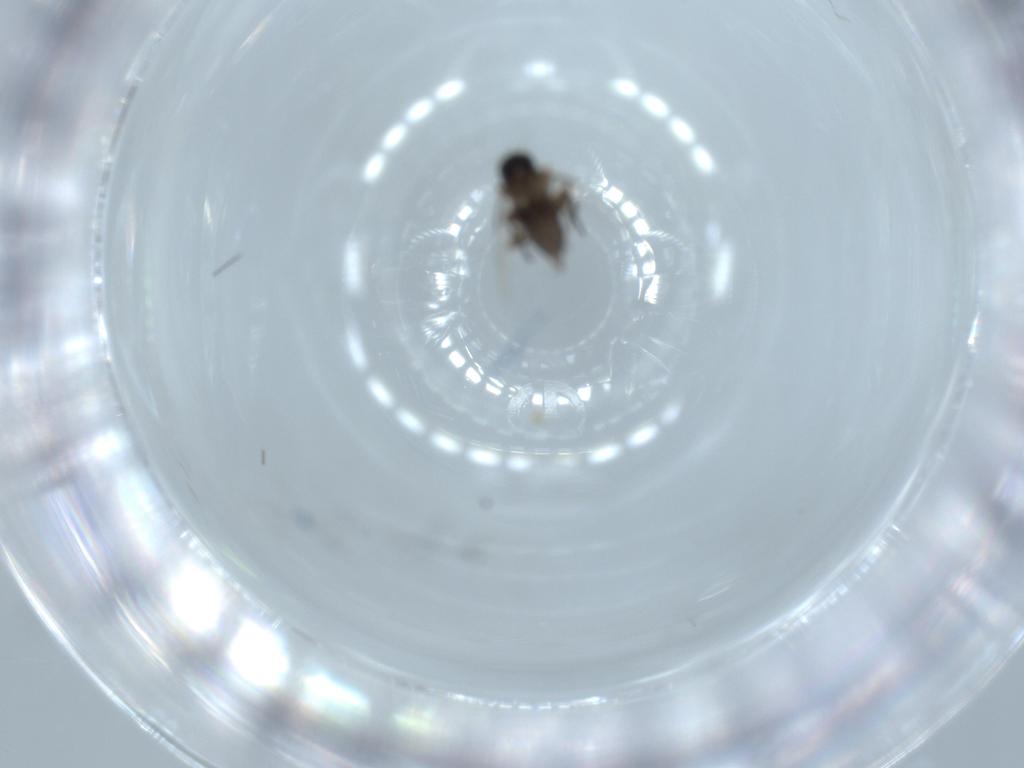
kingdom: Animalia
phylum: Arthropoda
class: Insecta
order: Diptera
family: Phoridae
